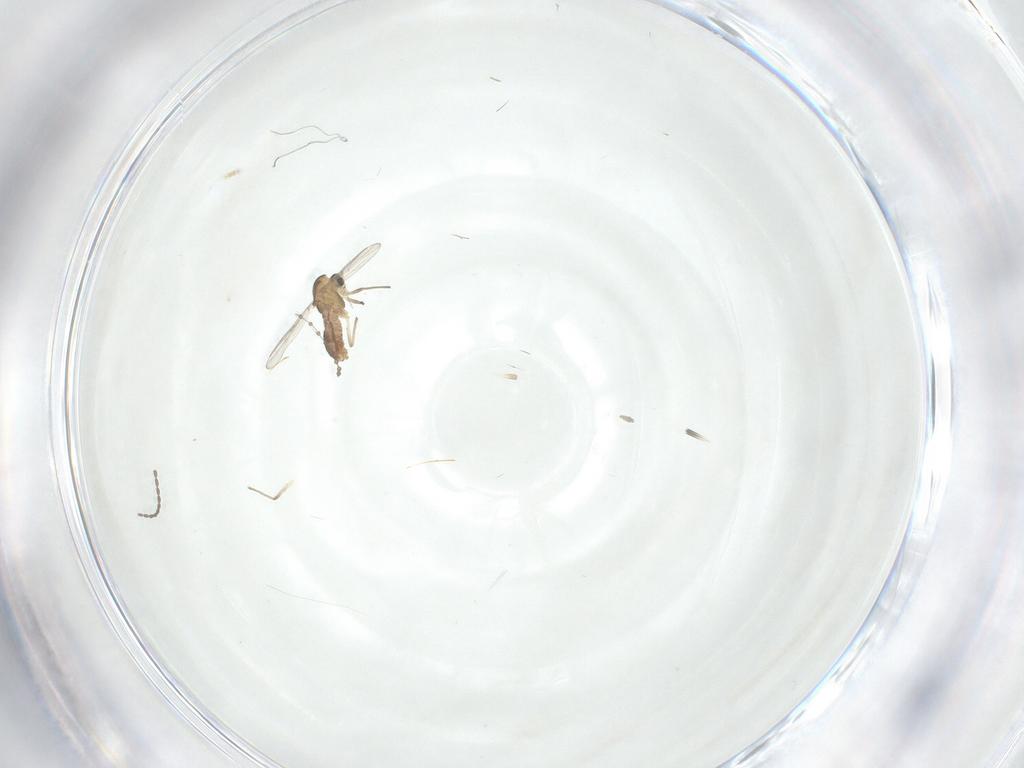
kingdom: Animalia
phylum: Arthropoda
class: Insecta
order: Diptera
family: Chironomidae
